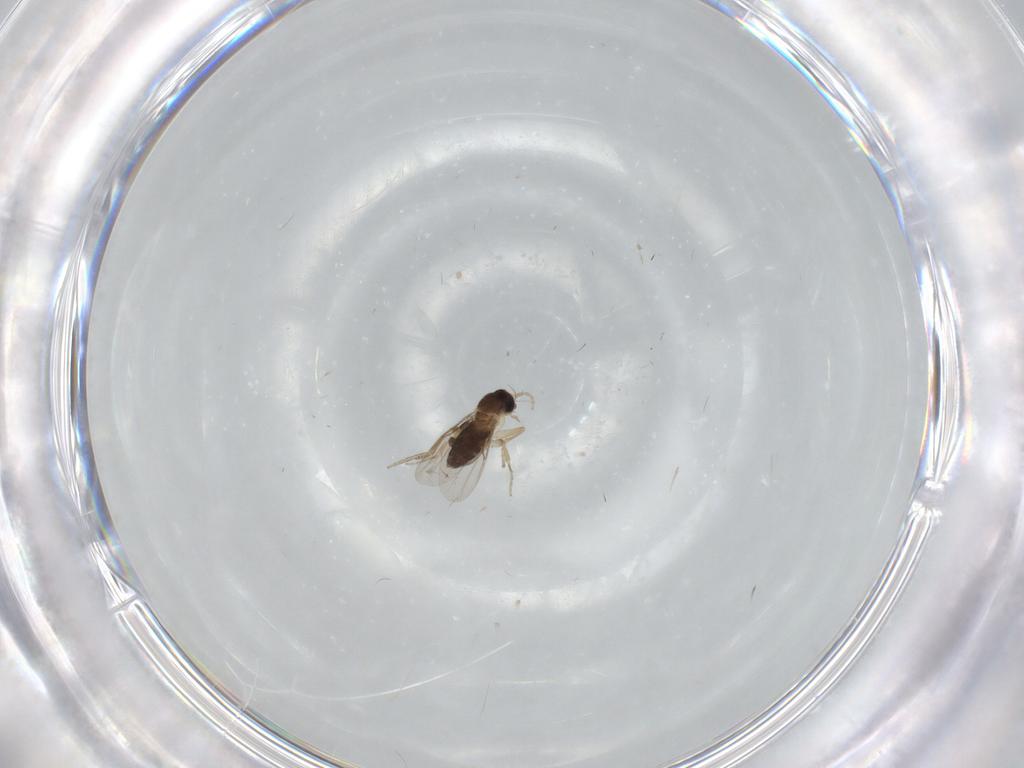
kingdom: Animalia
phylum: Arthropoda
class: Insecta
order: Diptera
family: Phoridae
